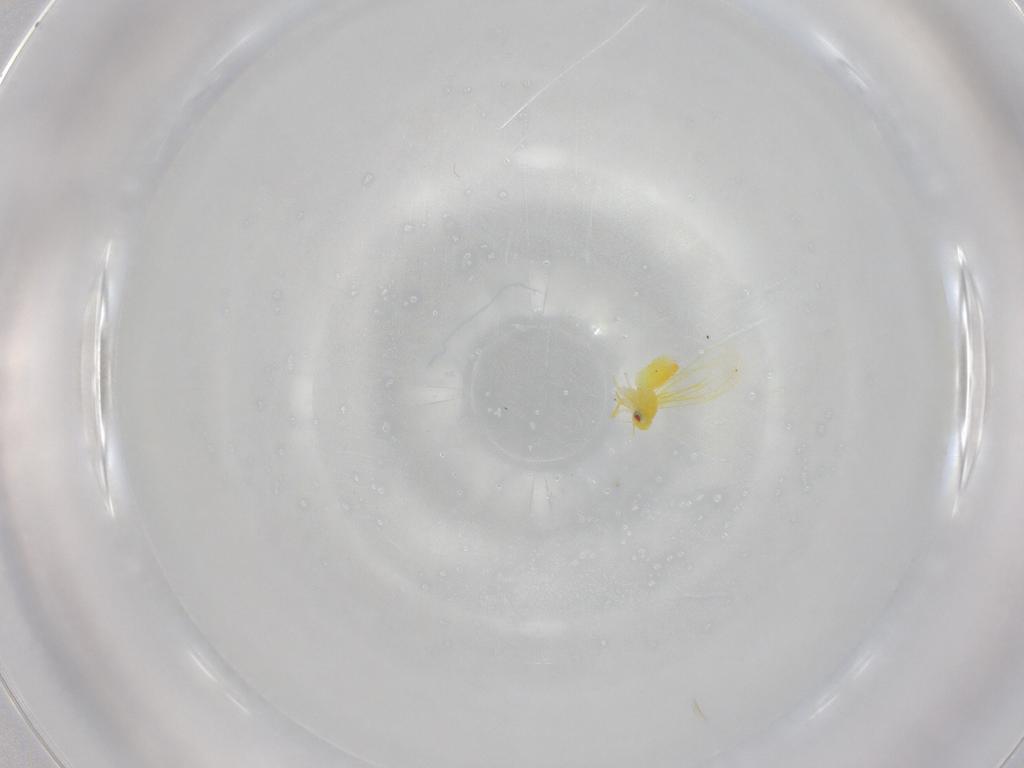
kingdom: Animalia
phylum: Arthropoda
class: Insecta
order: Hemiptera
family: Aleyrodidae
